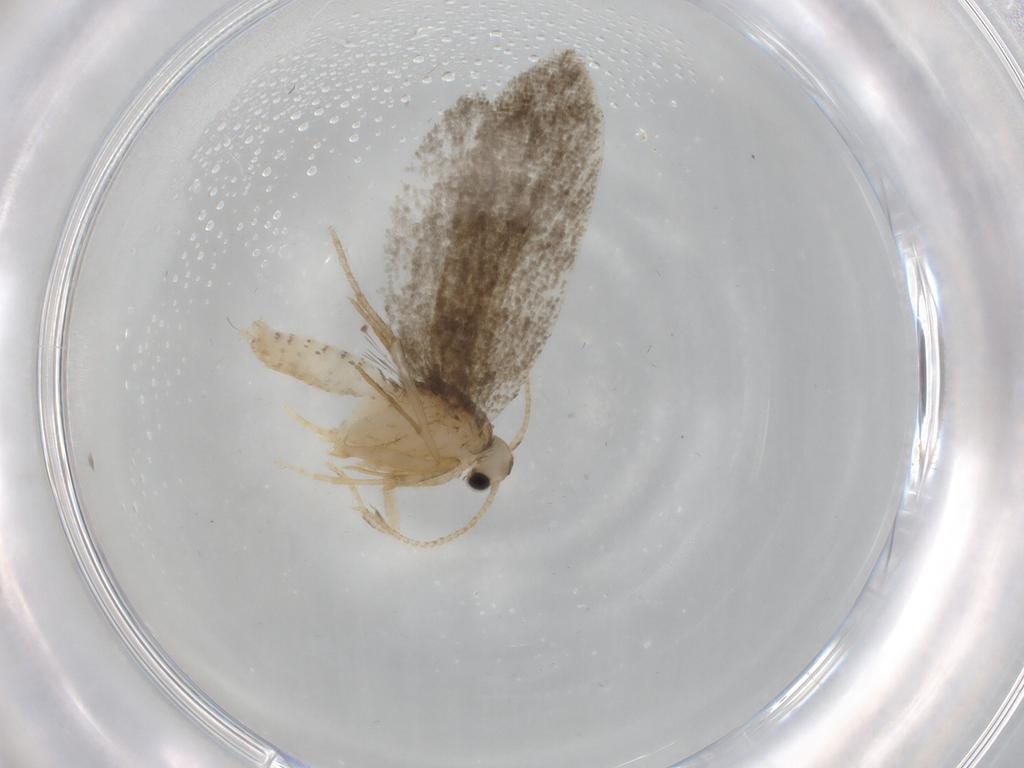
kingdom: Animalia
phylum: Arthropoda
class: Insecta
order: Lepidoptera
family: Psychidae
